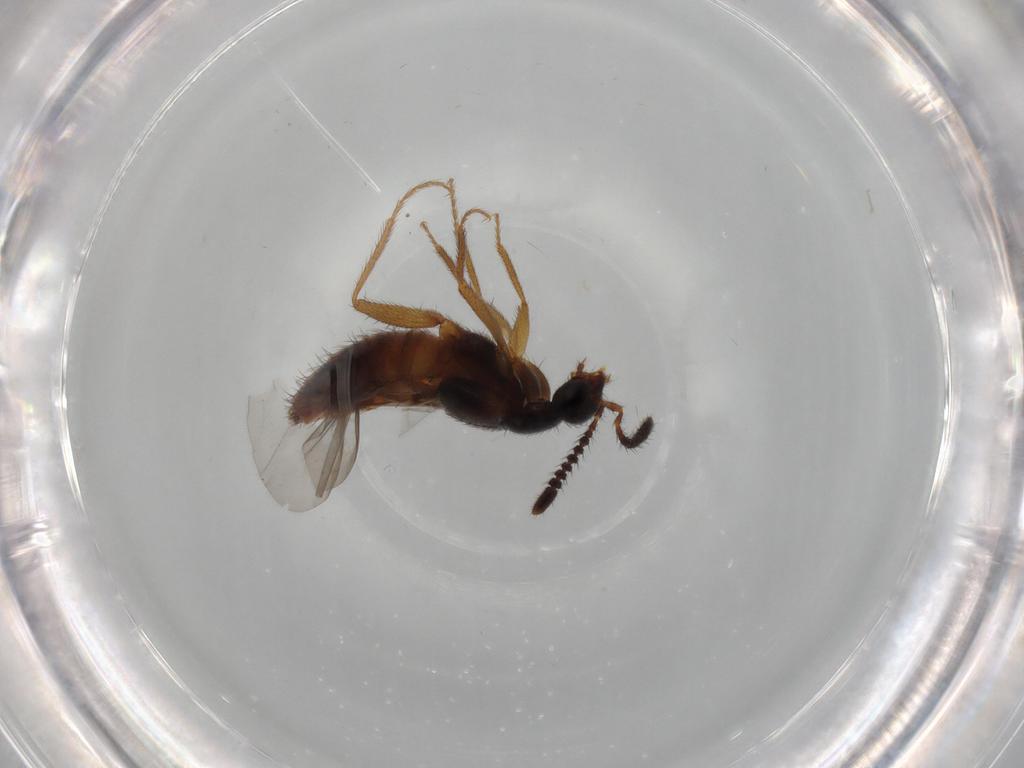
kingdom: Animalia
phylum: Arthropoda
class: Insecta
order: Coleoptera
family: Staphylinidae
